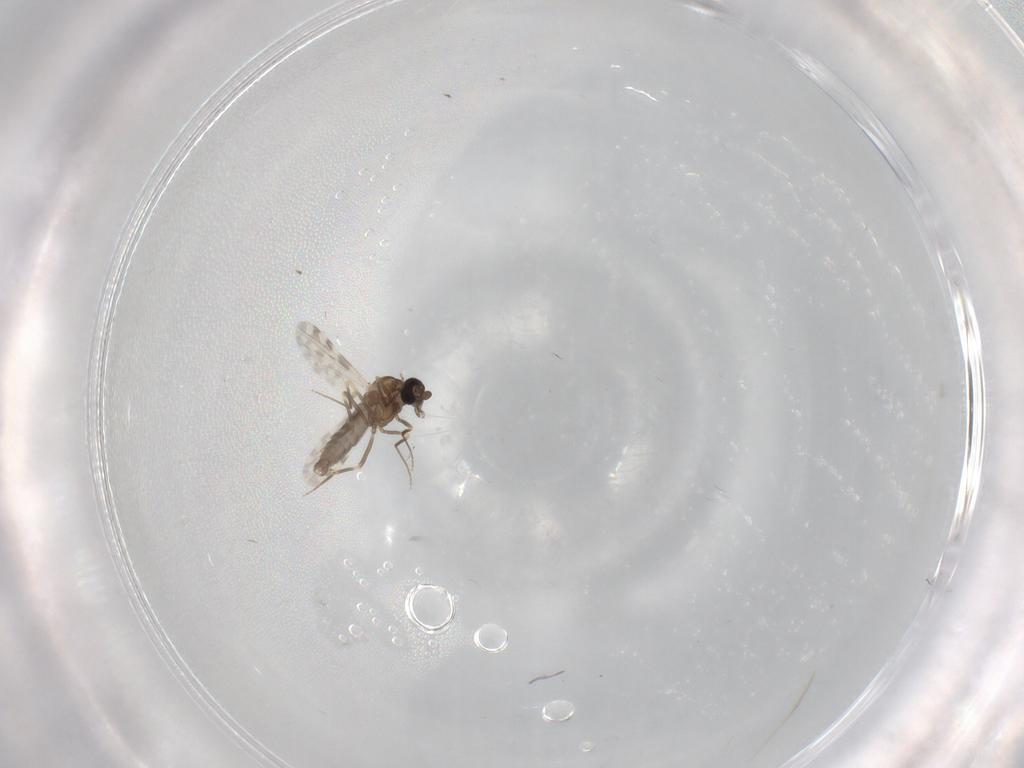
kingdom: Animalia
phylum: Arthropoda
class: Insecta
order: Diptera
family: Ceratopogonidae
